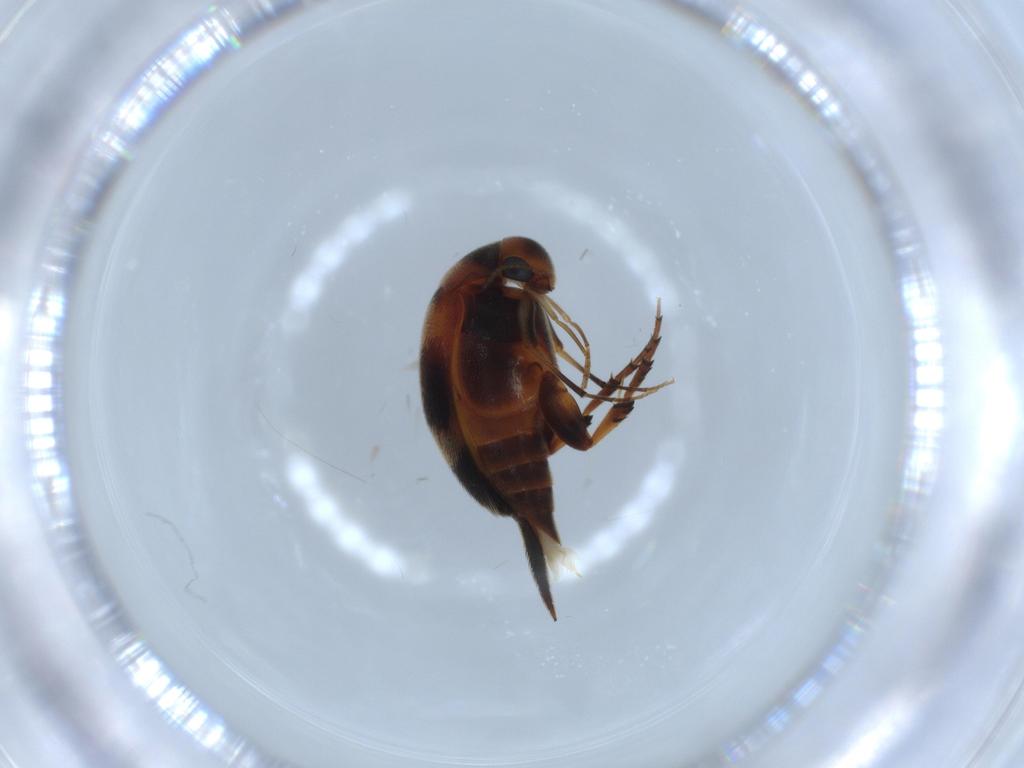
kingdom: Animalia
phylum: Arthropoda
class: Insecta
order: Coleoptera
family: Mordellidae
